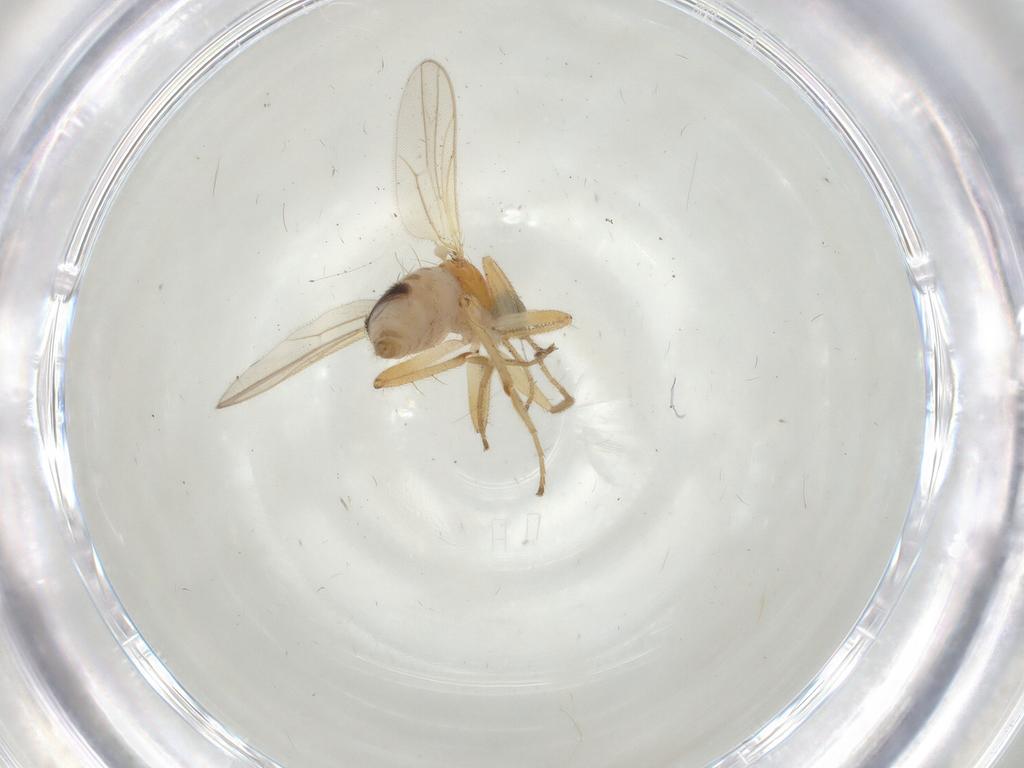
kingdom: Animalia
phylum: Arthropoda
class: Insecta
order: Diptera
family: Hybotidae
